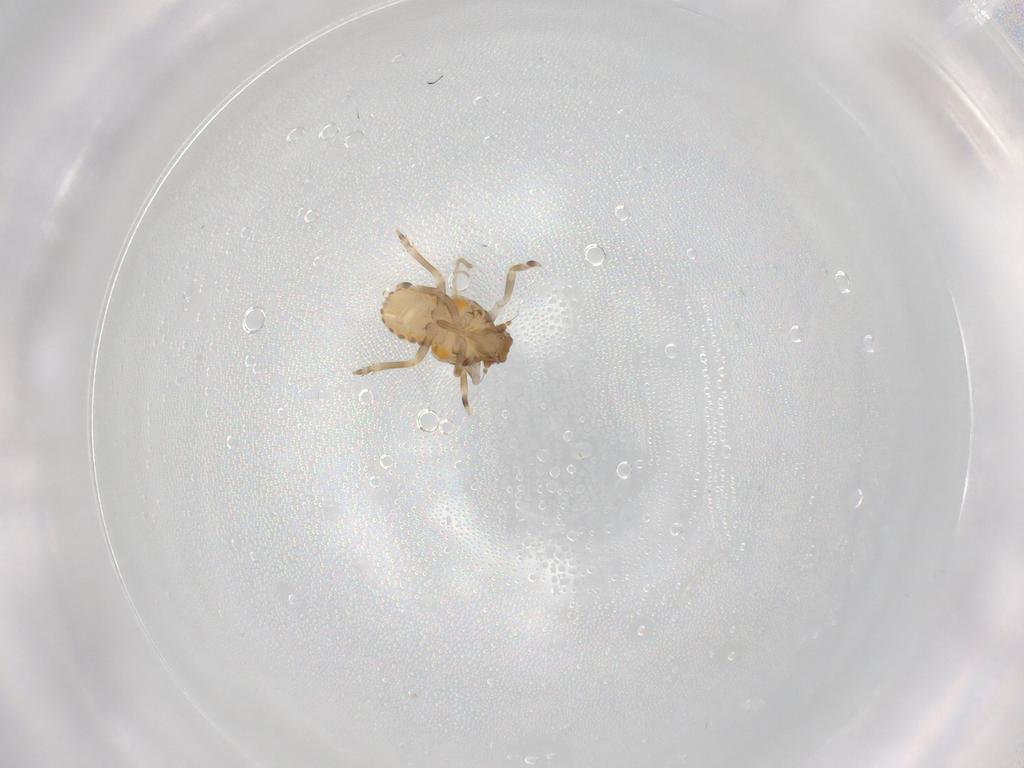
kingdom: Animalia
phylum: Arthropoda
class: Insecta
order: Hemiptera
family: Flatidae
